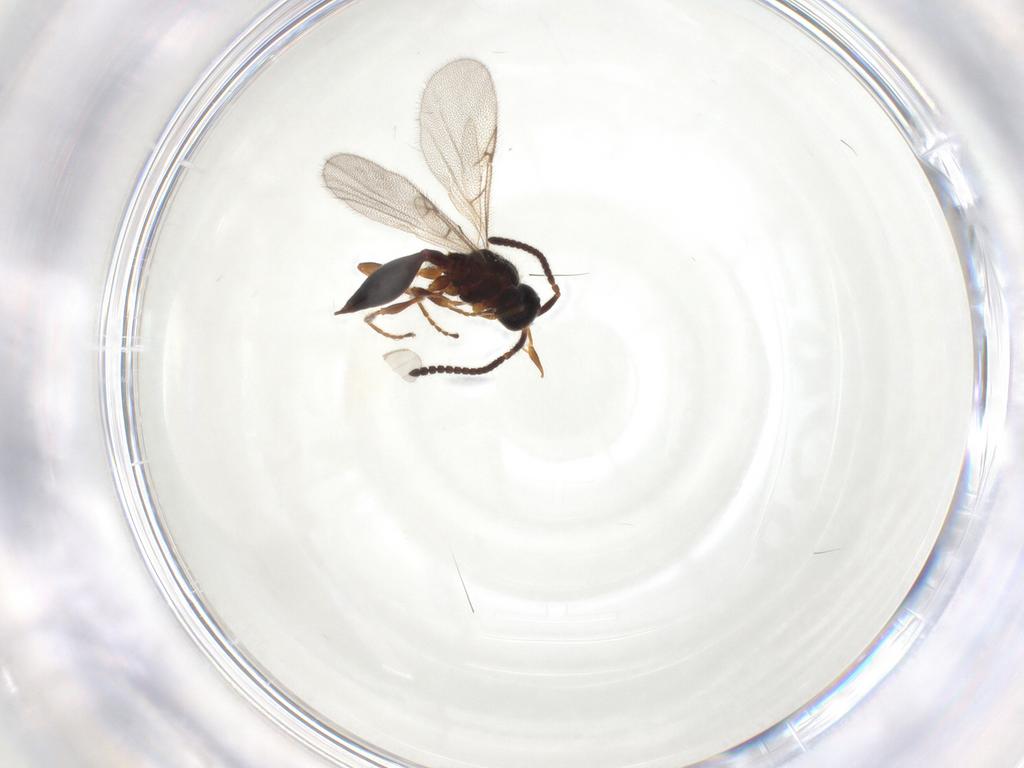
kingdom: Animalia
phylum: Arthropoda
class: Insecta
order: Hymenoptera
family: Diapriidae
